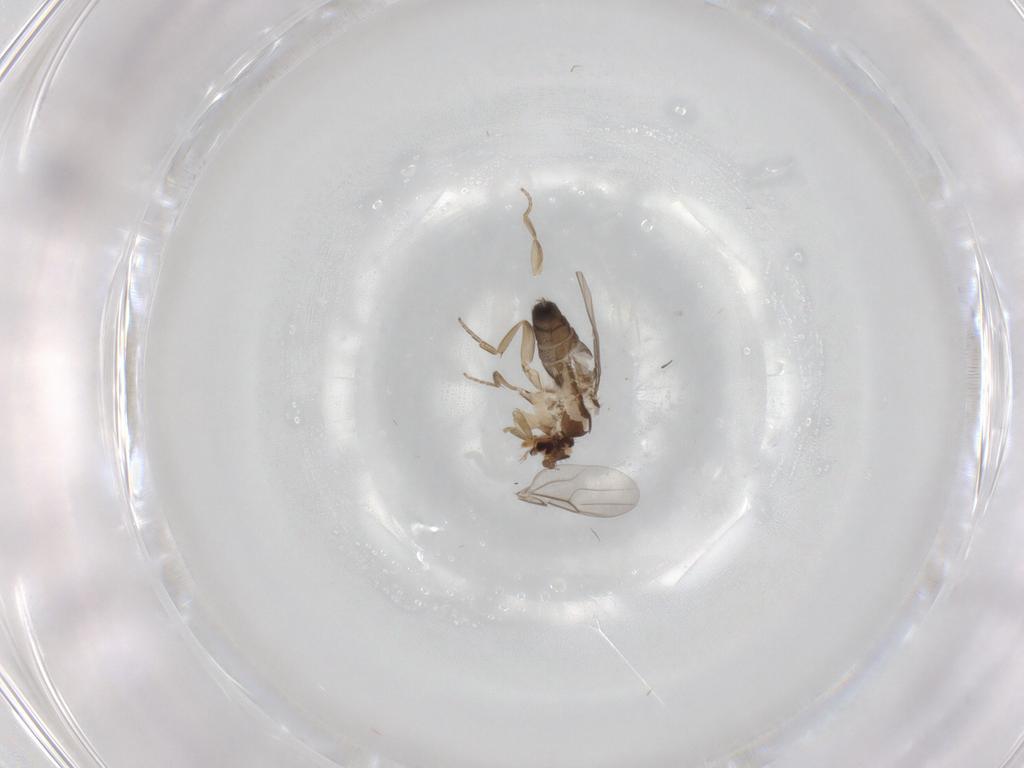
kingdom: Animalia
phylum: Arthropoda
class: Insecta
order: Diptera
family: Phoridae
